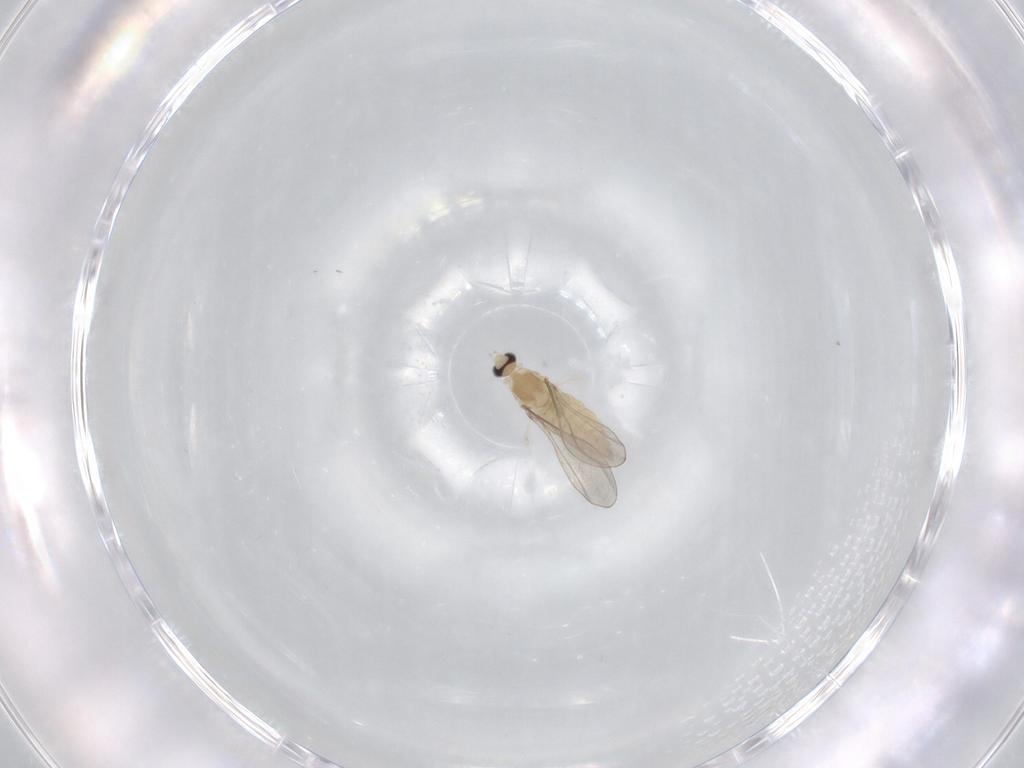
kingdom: Animalia
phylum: Arthropoda
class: Insecta
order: Diptera
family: Cecidomyiidae
